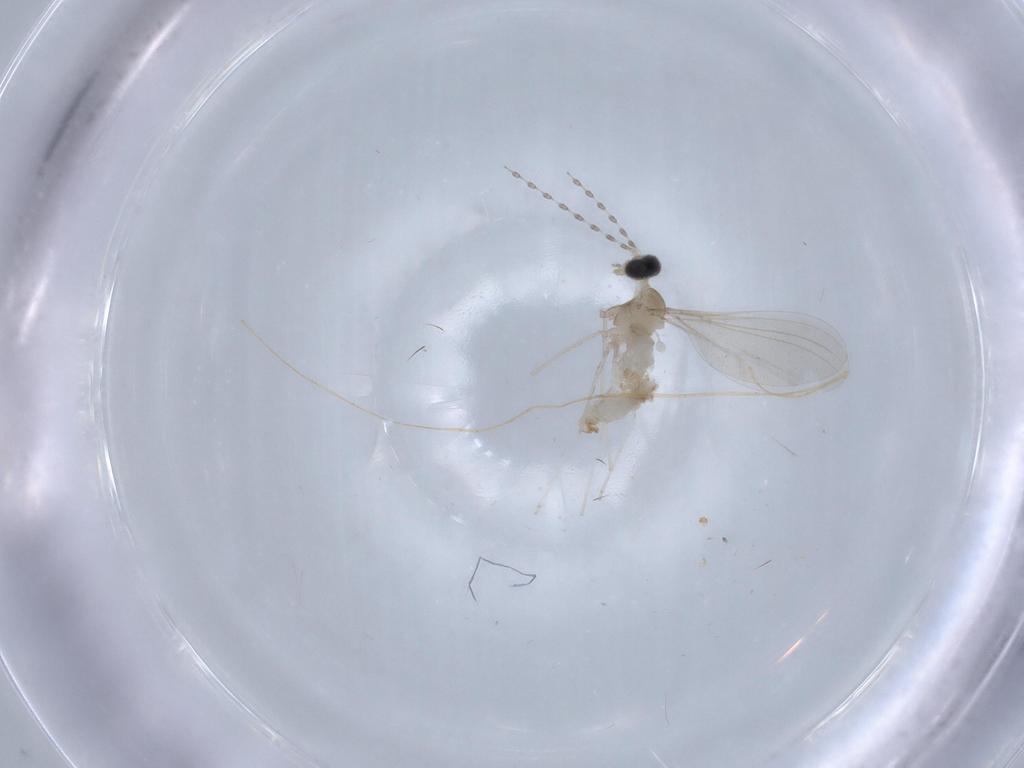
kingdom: Animalia
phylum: Arthropoda
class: Insecta
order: Diptera
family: Cecidomyiidae
